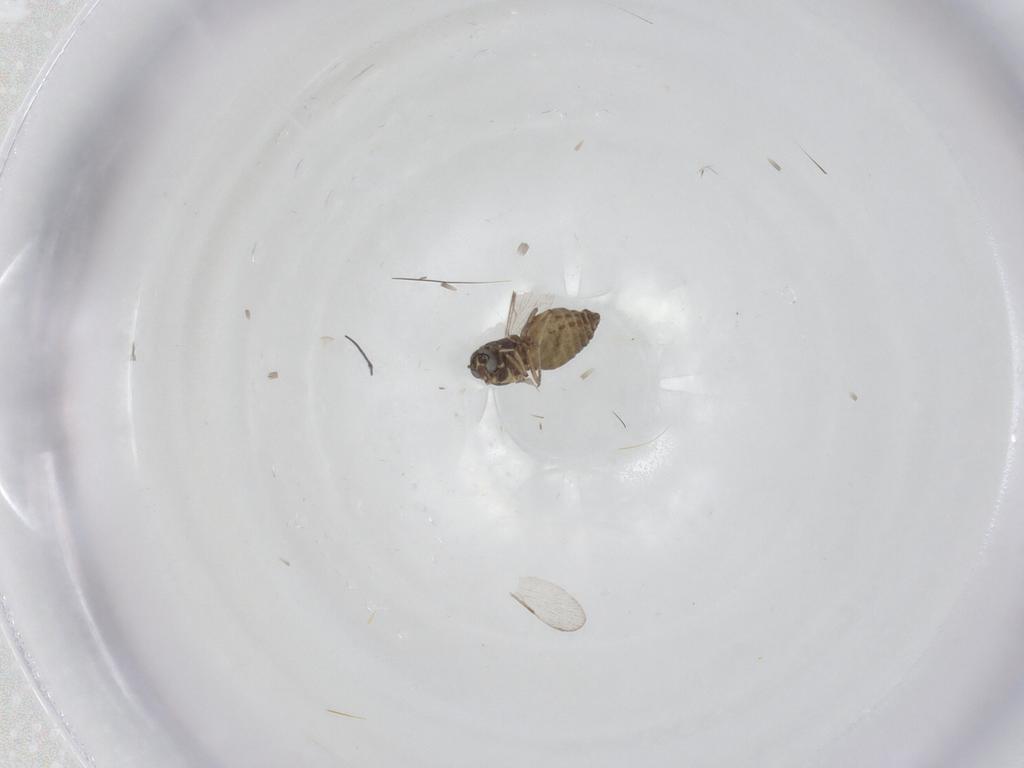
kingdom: Animalia
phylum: Arthropoda
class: Insecta
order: Diptera
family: Ceratopogonidae
